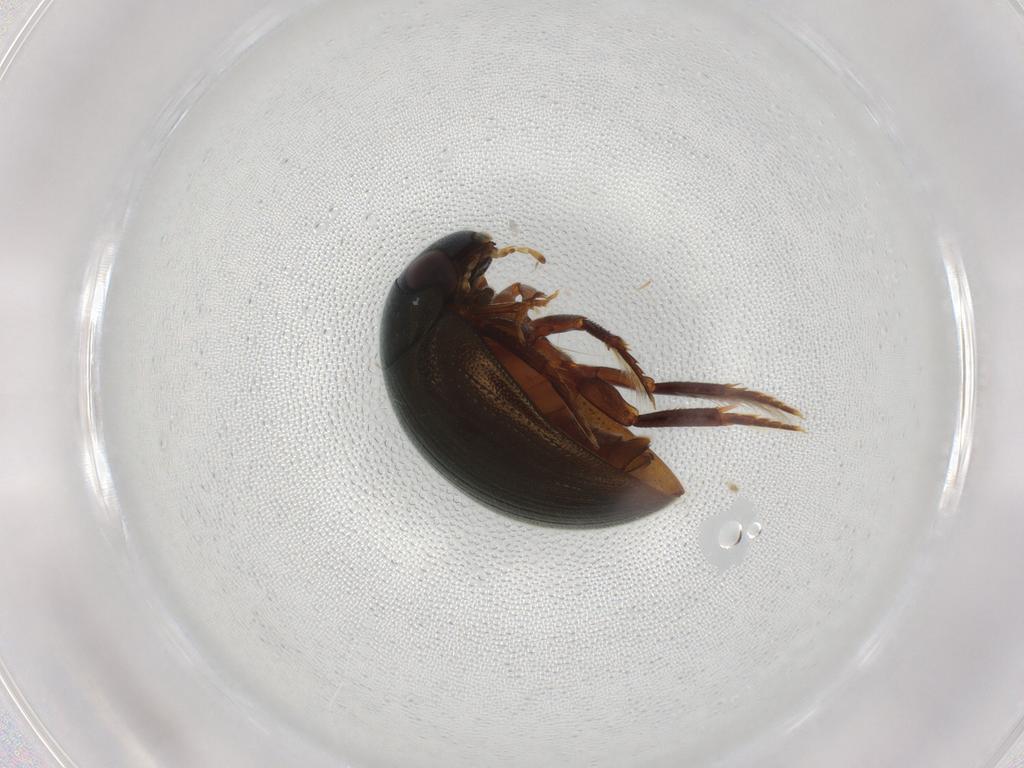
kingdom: Animalia
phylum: Arthropoda
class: Insecta
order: Coleoptera
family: Hydrophilidae
